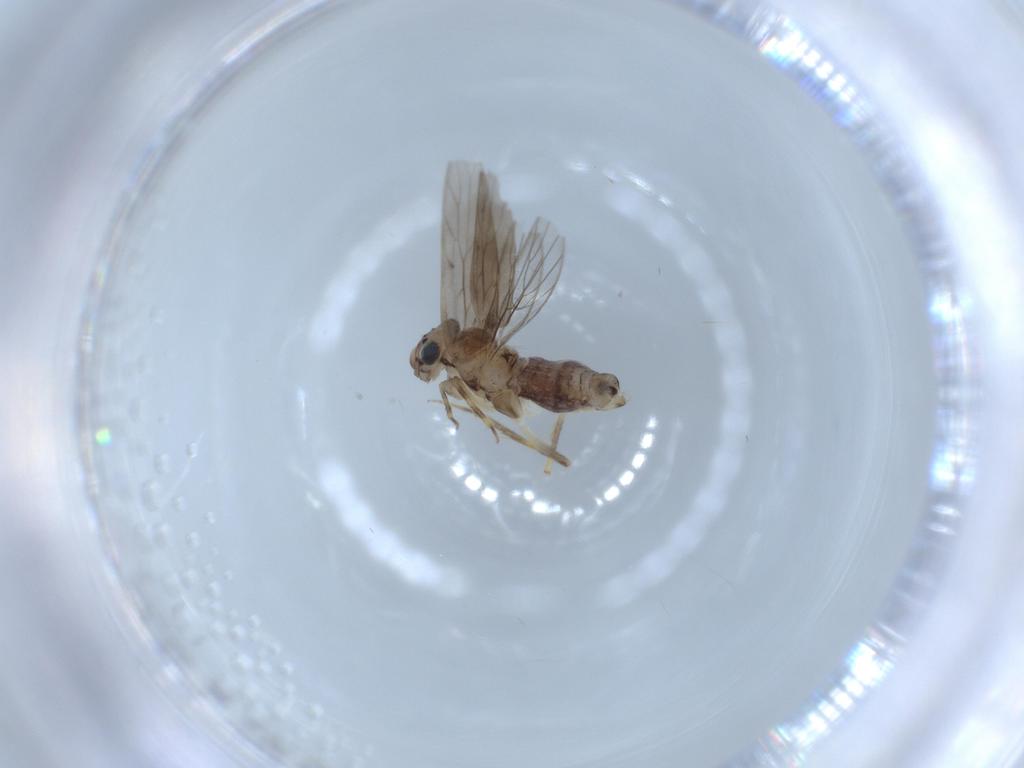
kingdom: Animalia
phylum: Arthropoda
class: Insecta
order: Psocodea
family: Lepidopsocidae
